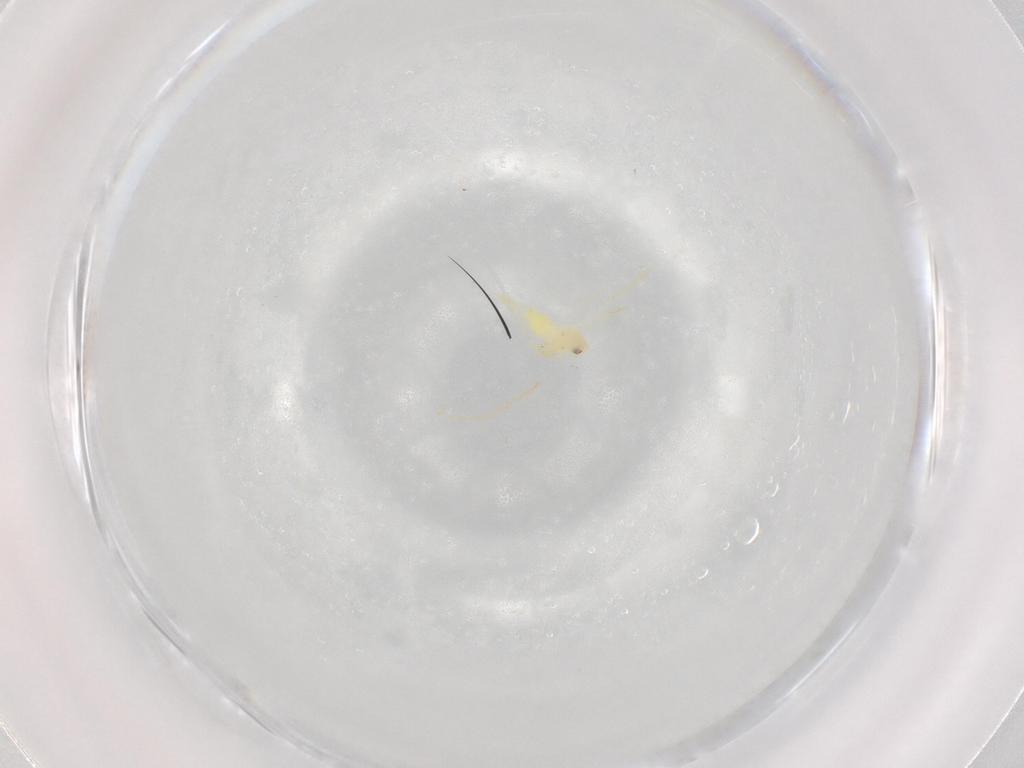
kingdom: Animalia
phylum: Arthropoda
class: Insecta
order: Hemiptera
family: Aleyrodidae
